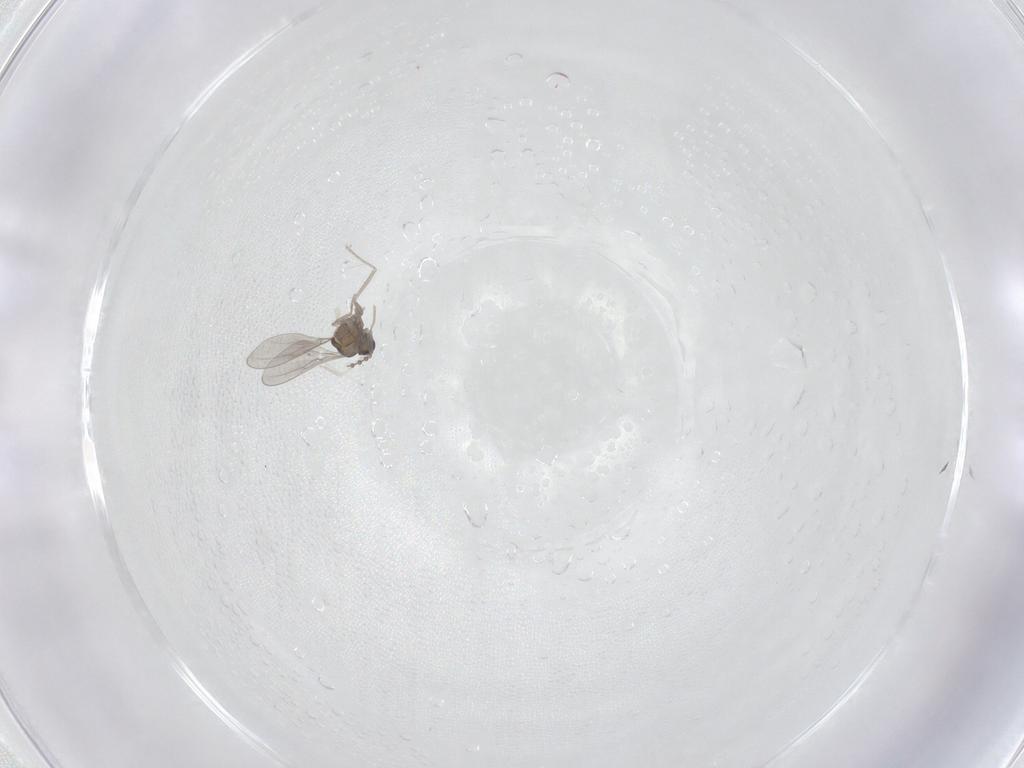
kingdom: Animalia
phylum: Arthropoda
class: Insecta
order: Diptera
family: Cecidomyiidae
